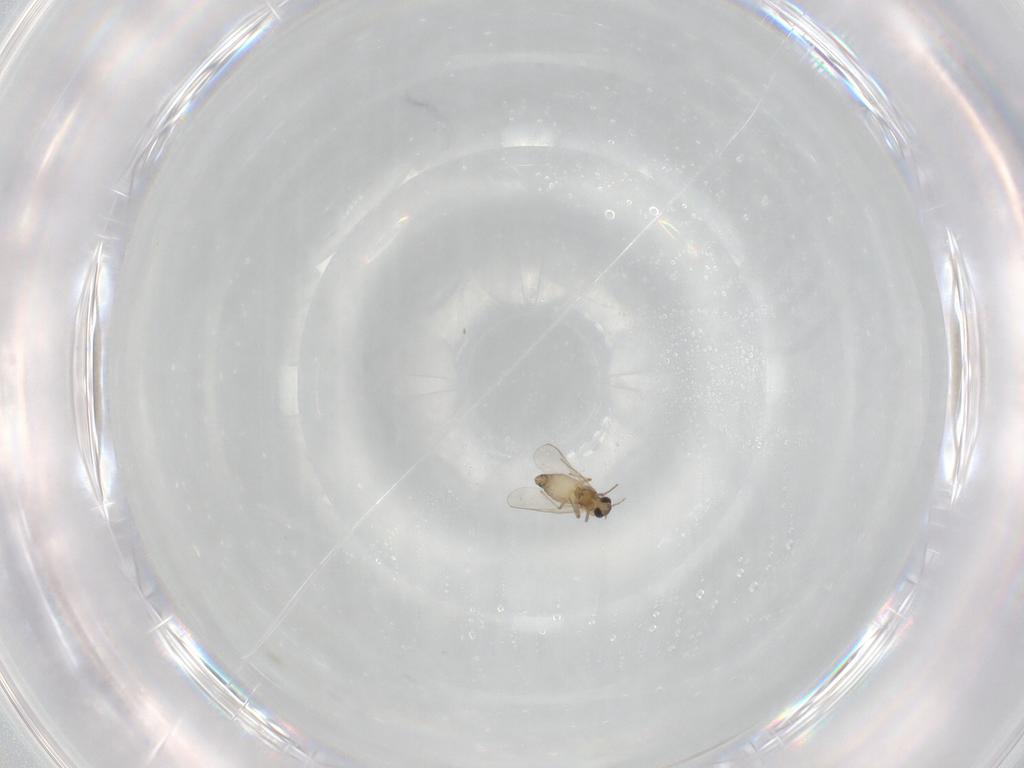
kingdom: Animalia
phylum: Arthropoda
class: Insecta
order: Diptera
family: Chironomidae
